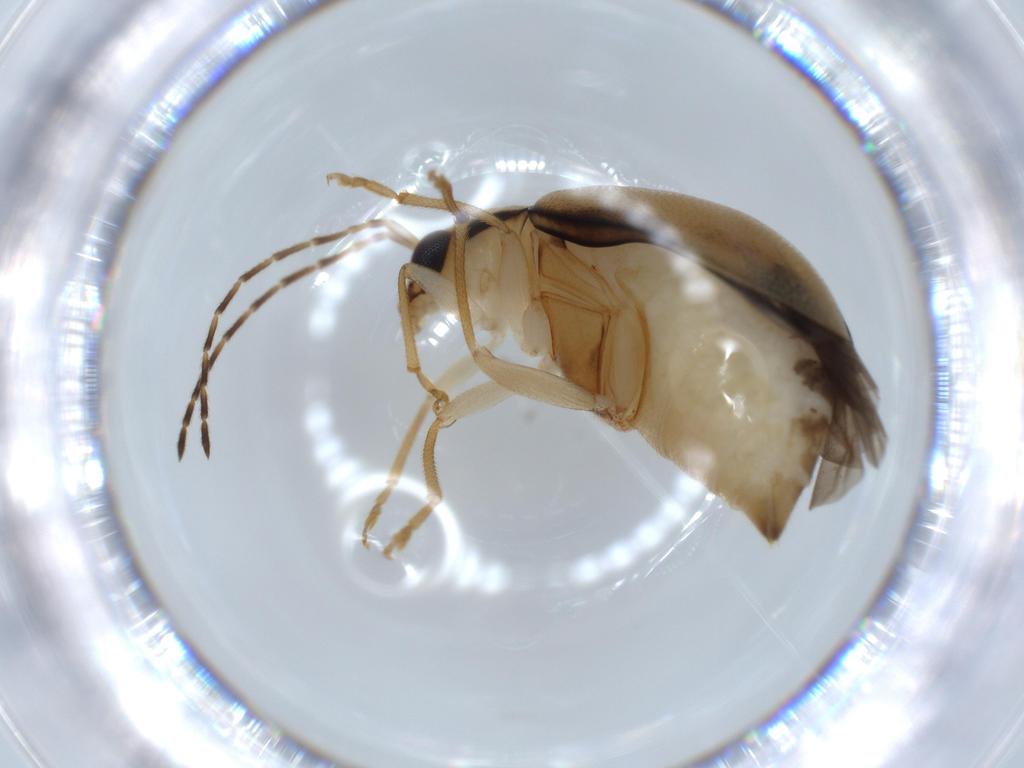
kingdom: Animalia
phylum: Arthropoda
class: Insecta
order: Coleoptera
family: Chrysomelidae
